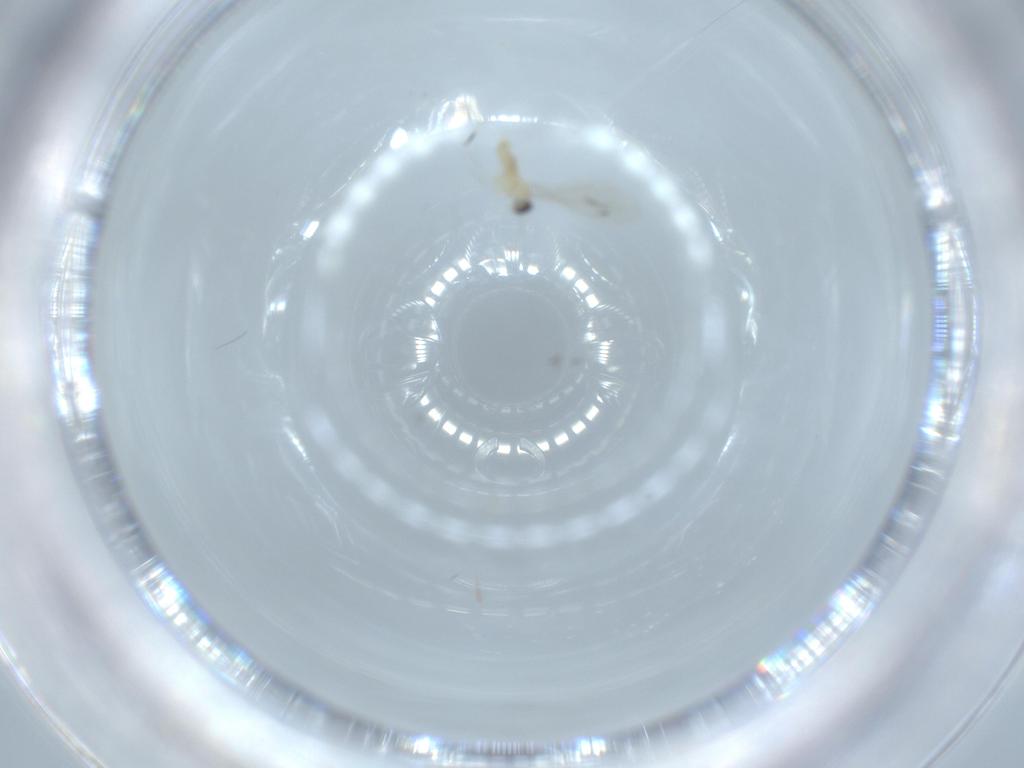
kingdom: Animalia
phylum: Arthropoda
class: Insecta
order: Diptera
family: Cecidomyiidae
